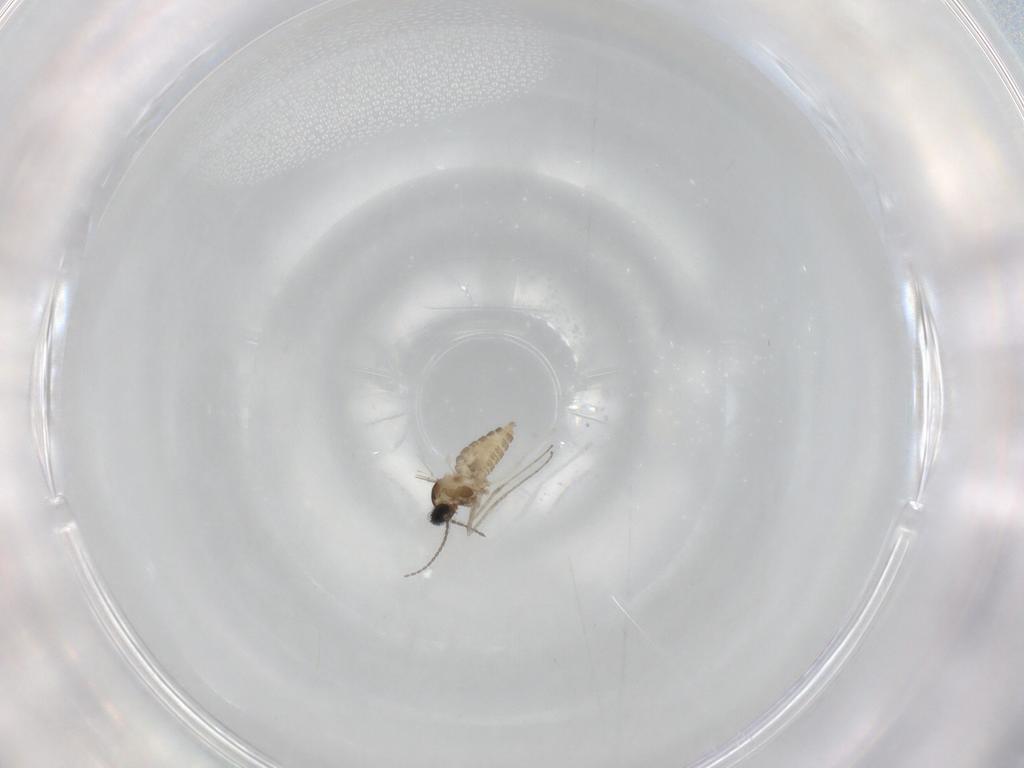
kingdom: Animalia
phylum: Arthropoda
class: Insecta
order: Diptera
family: Cecidomyiidae
